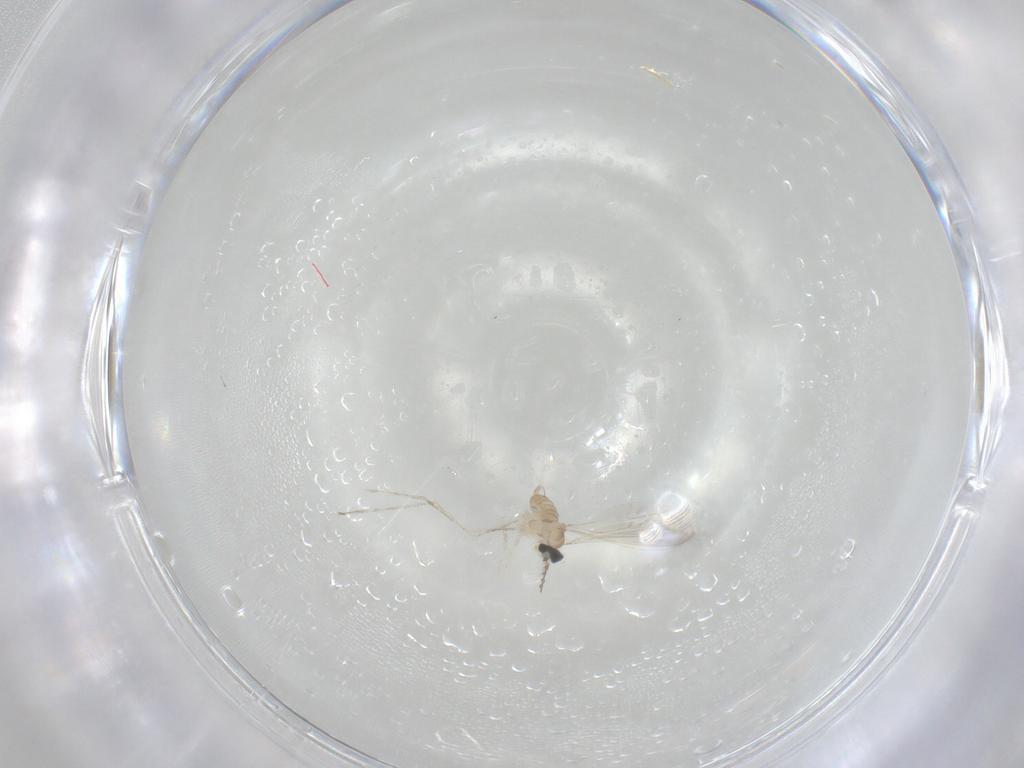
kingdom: Animalia
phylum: Arthropoda
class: Insecta
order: Diptera
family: Cecidomyiidae
